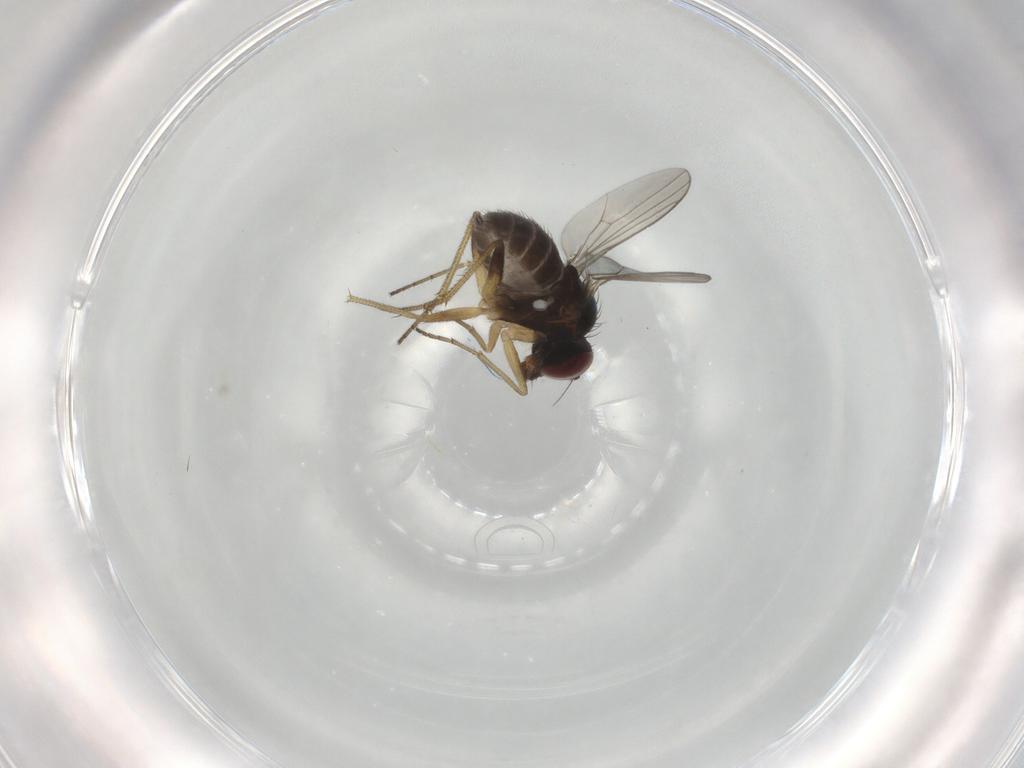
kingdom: Animalia
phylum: Arthropoda
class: Insecta
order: Diptera
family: Dolichopodidae
